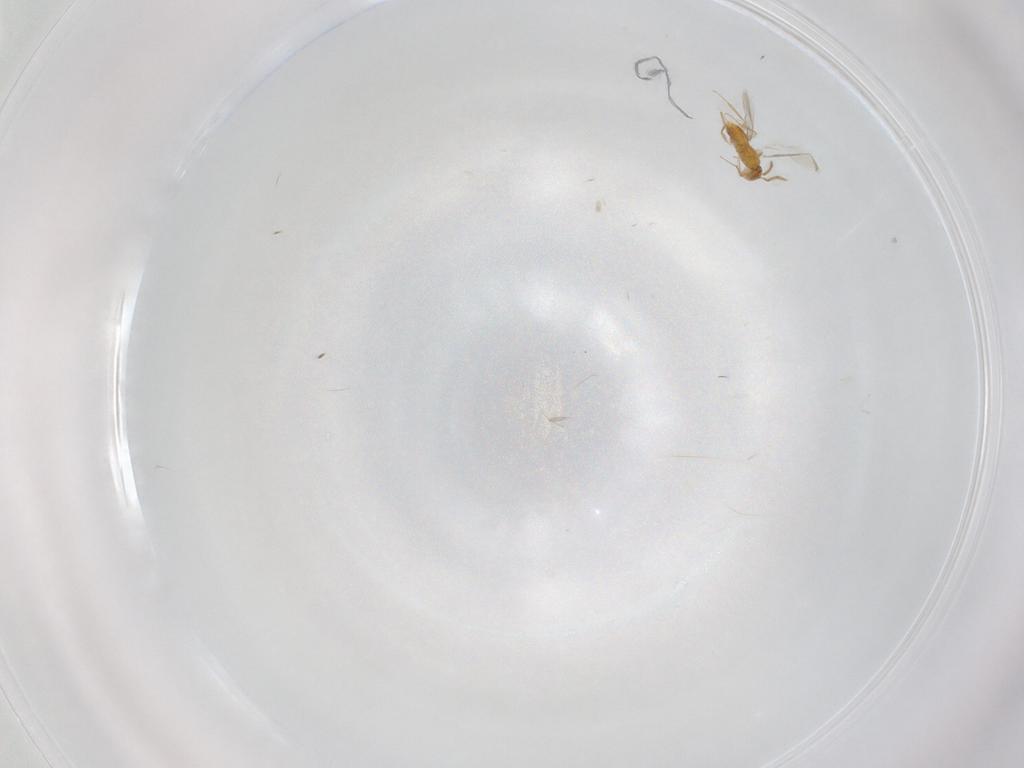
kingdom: Animalia
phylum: Arthropoda
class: Insecta
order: Hymenoptera
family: Aphelinidae
